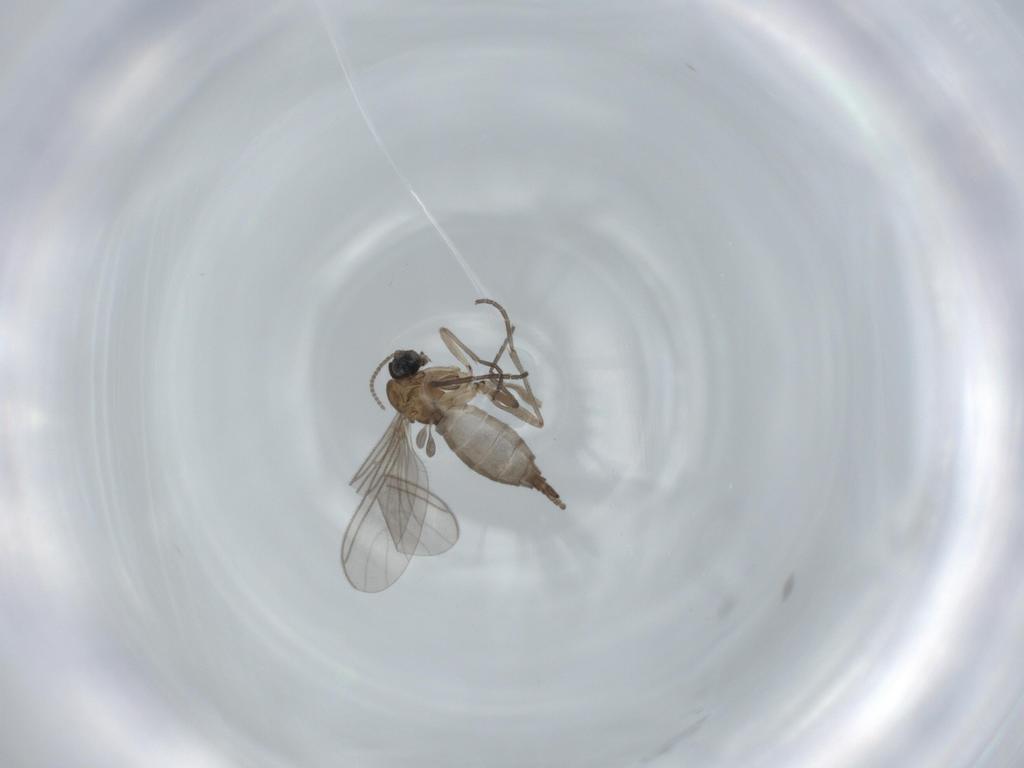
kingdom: Animalia
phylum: Arthropoda
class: Insecta
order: Diptera
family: Sciaridae
